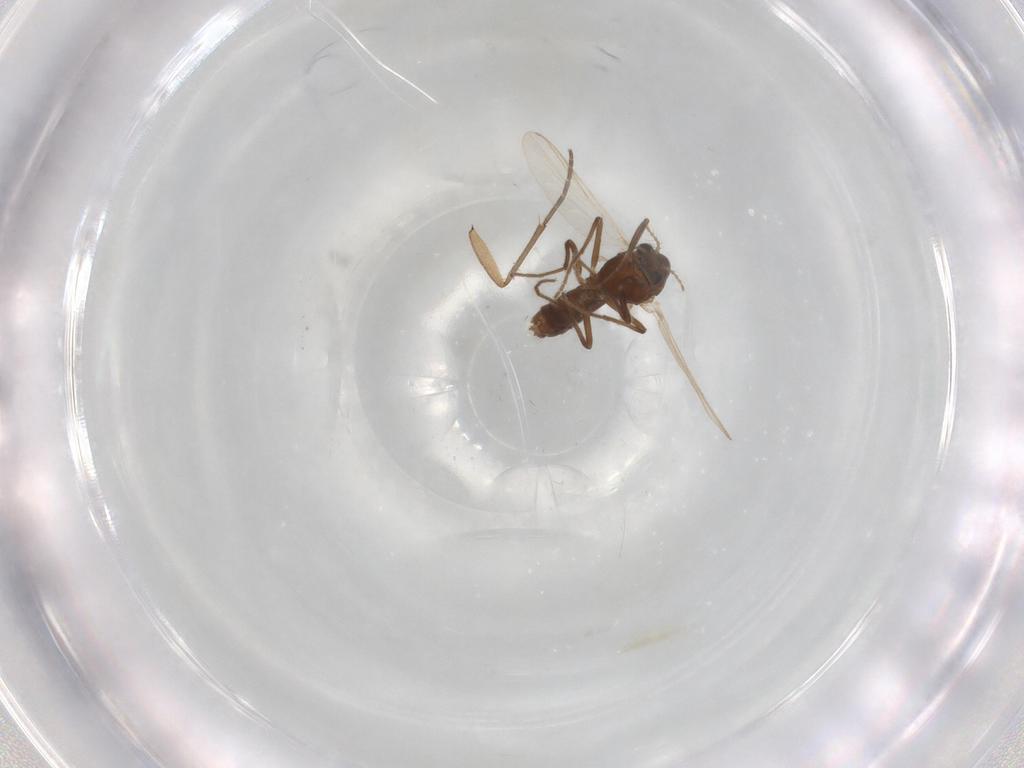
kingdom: Animalia
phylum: Arthropoda
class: Insecta
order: Diptera
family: Chironomidae
